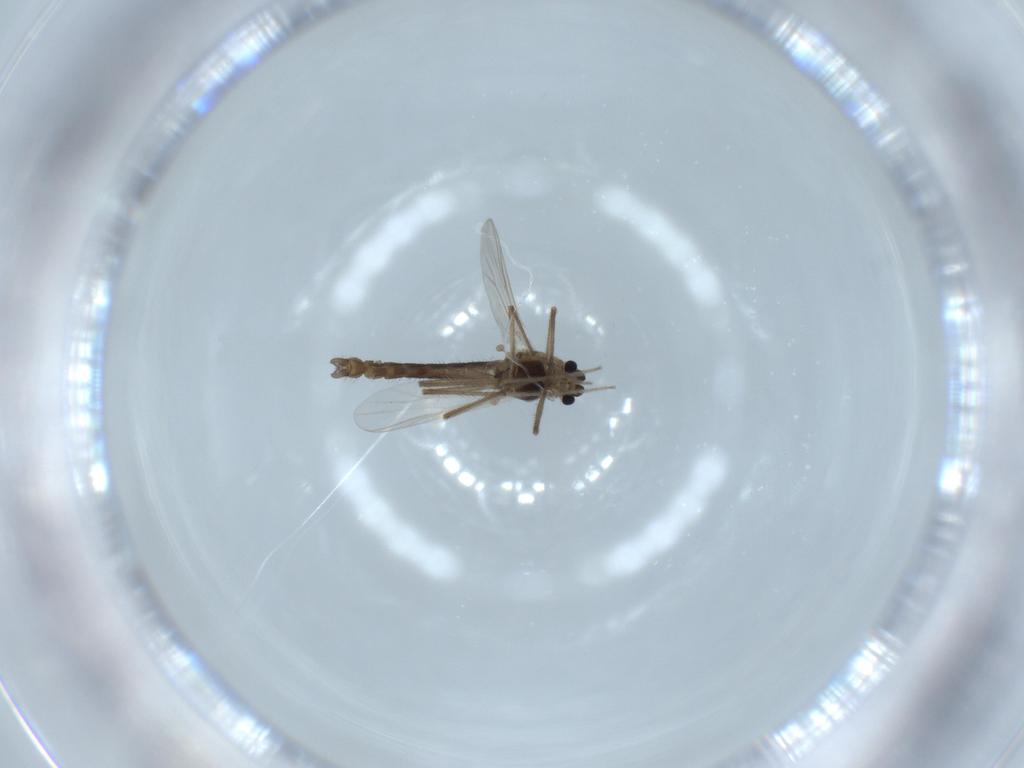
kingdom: Animalia
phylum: Arthropoda
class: Insecta
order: Diptera
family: Chironomidae
